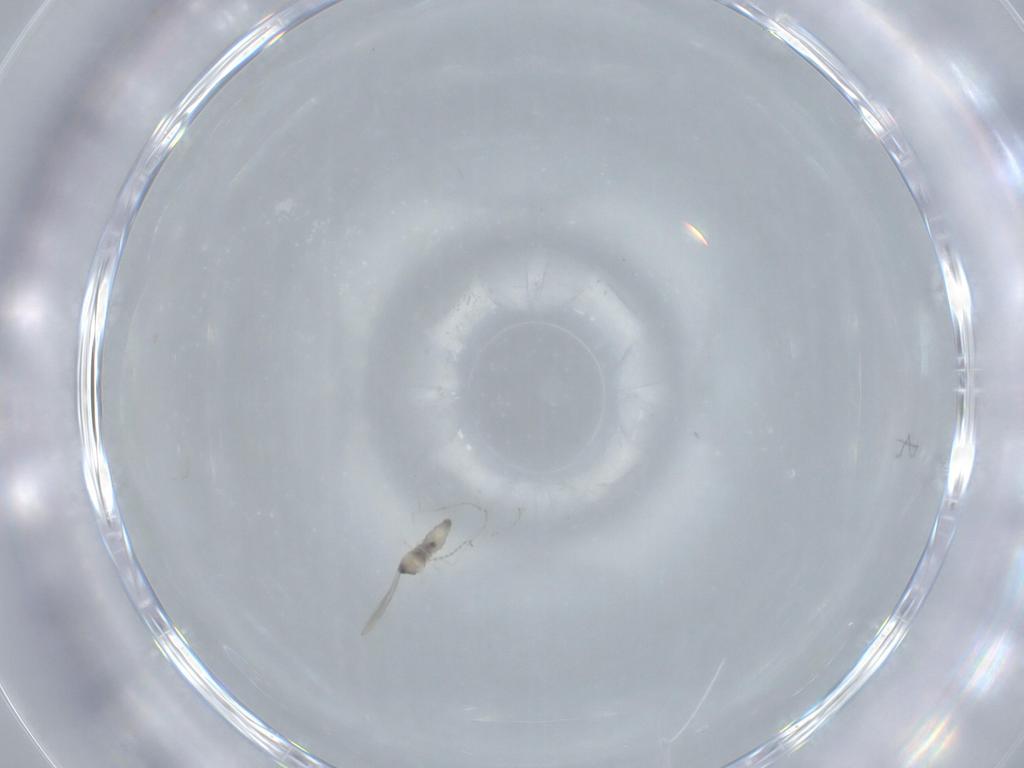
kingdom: Animalia
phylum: Arthropoda
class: Insecta
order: Diptera
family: Cecidomyiidae
